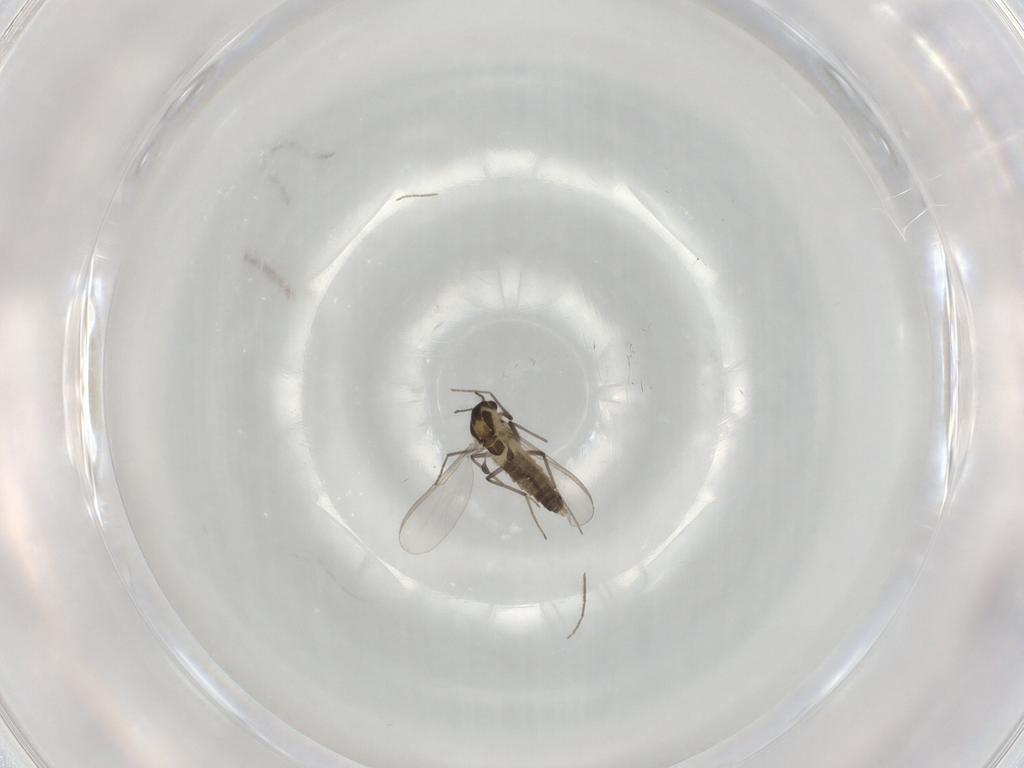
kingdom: Animalia
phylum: Arthropoda
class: Insecta
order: Diptera
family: Chironomidae
